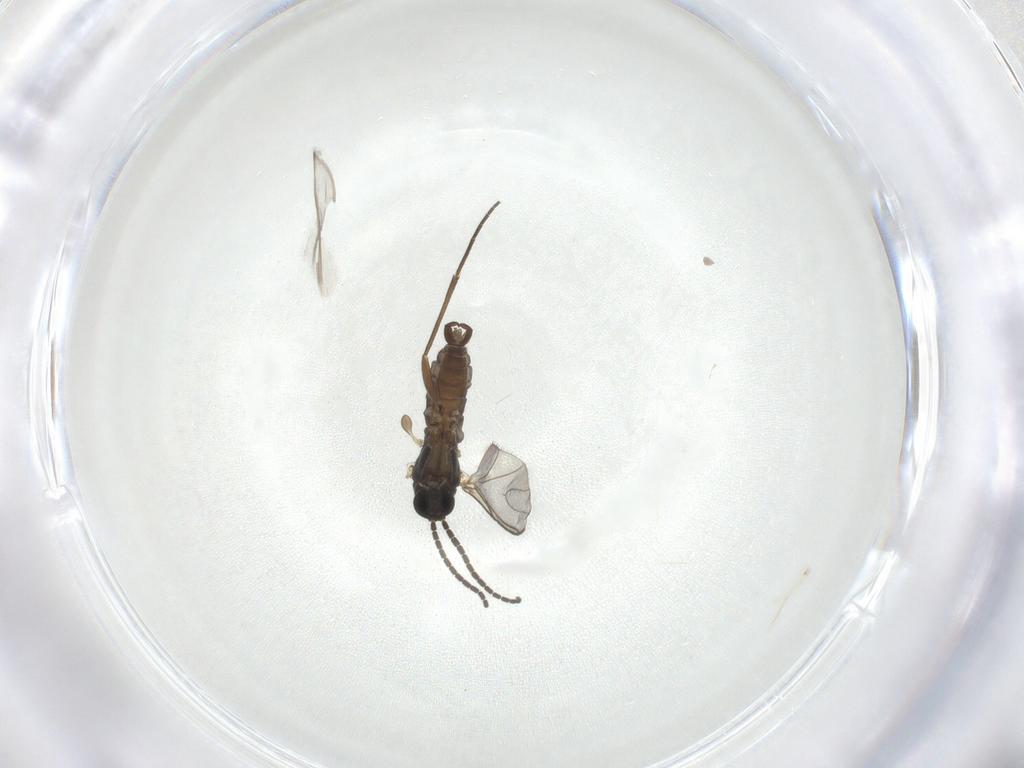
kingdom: Animalia
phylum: Arthropoda
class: Insecta
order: Diptera
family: Sciaridae
